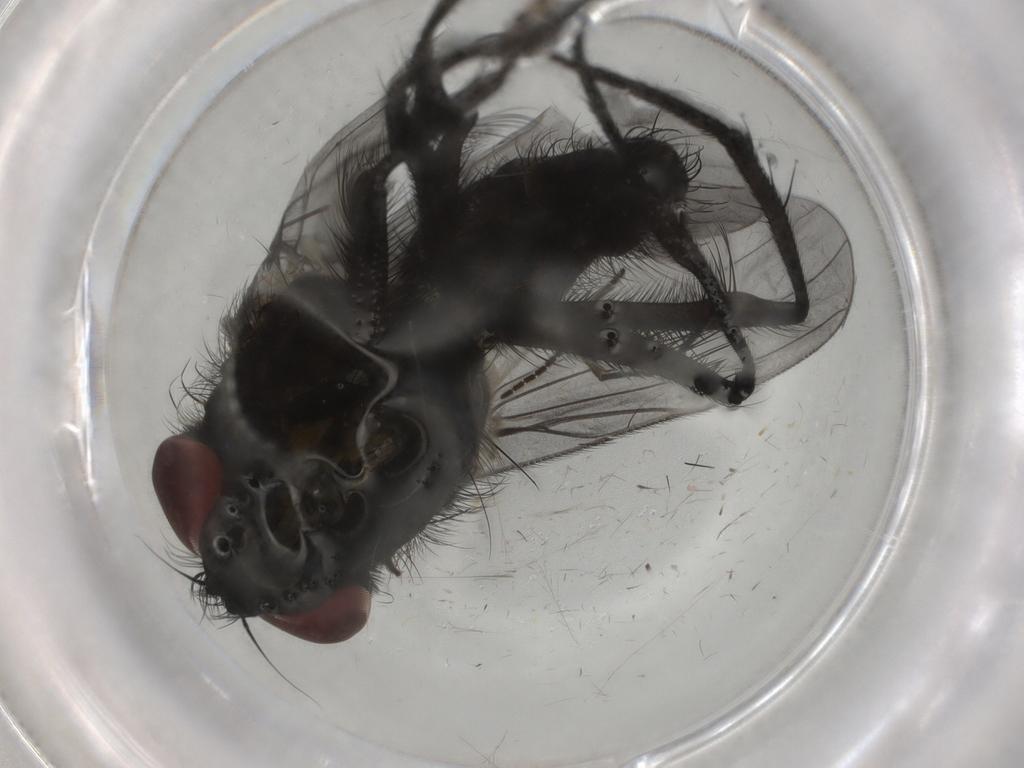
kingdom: Animalia
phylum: Arthropoda
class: Insecta
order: Diptera
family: Fannia
